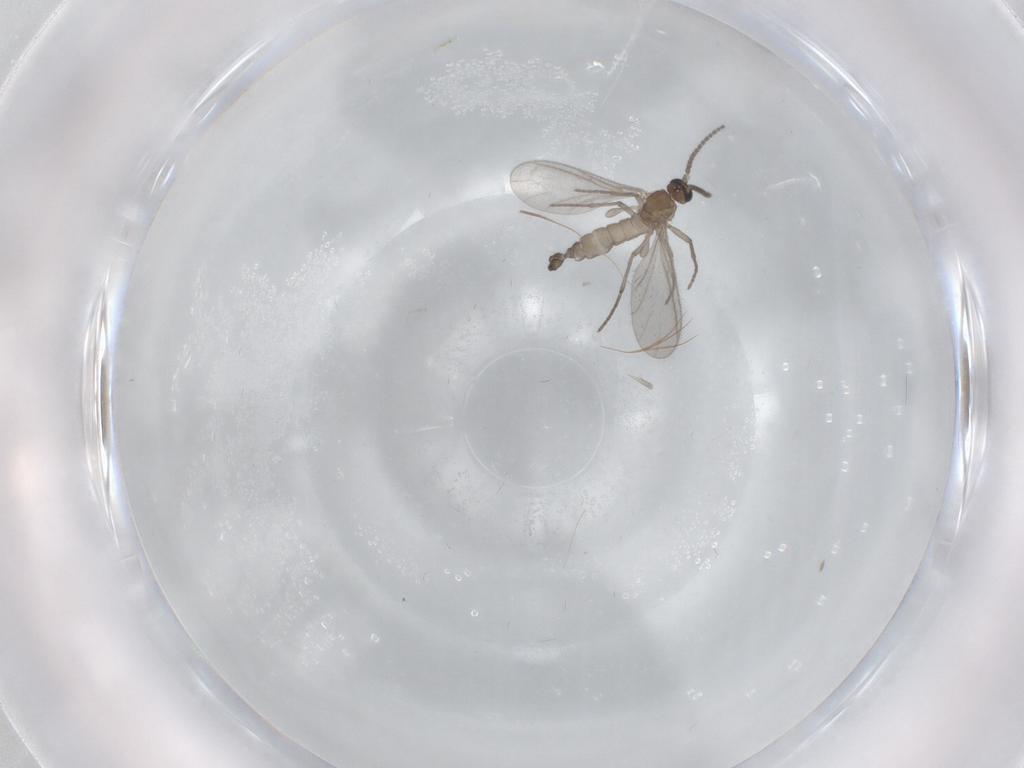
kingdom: Animalia
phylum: Arthropoda
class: Insecta
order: Diptera
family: Sciaridae
